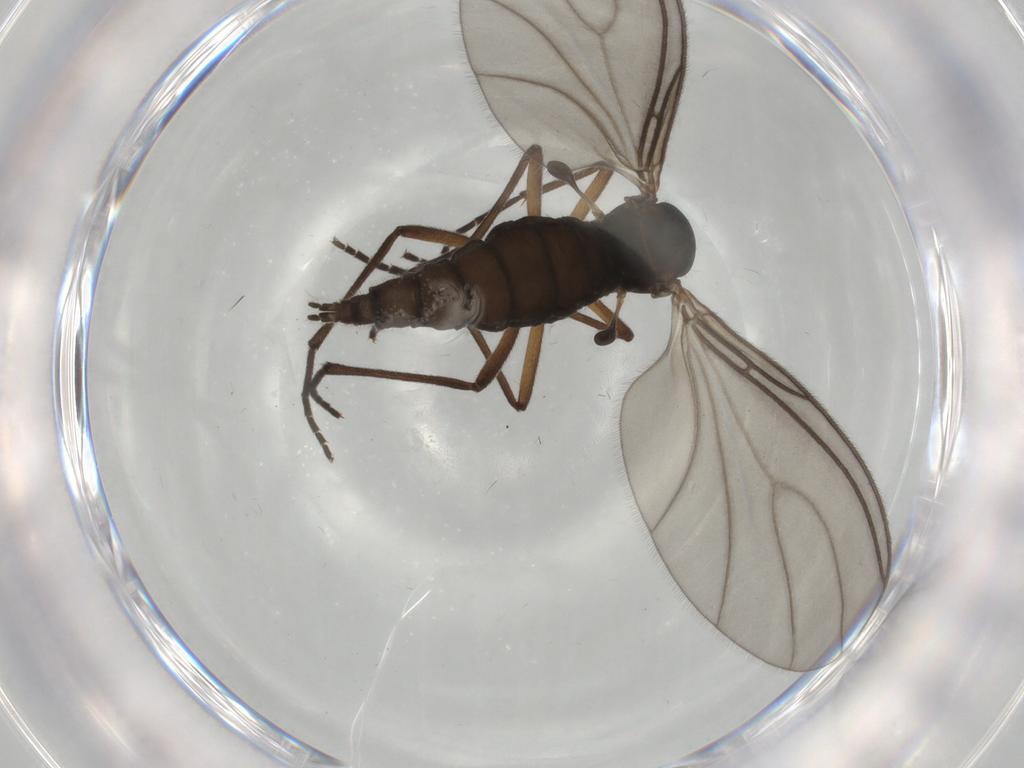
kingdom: Animalia
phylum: Arthropoda
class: Insecta
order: Diptera
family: Sciaridae
